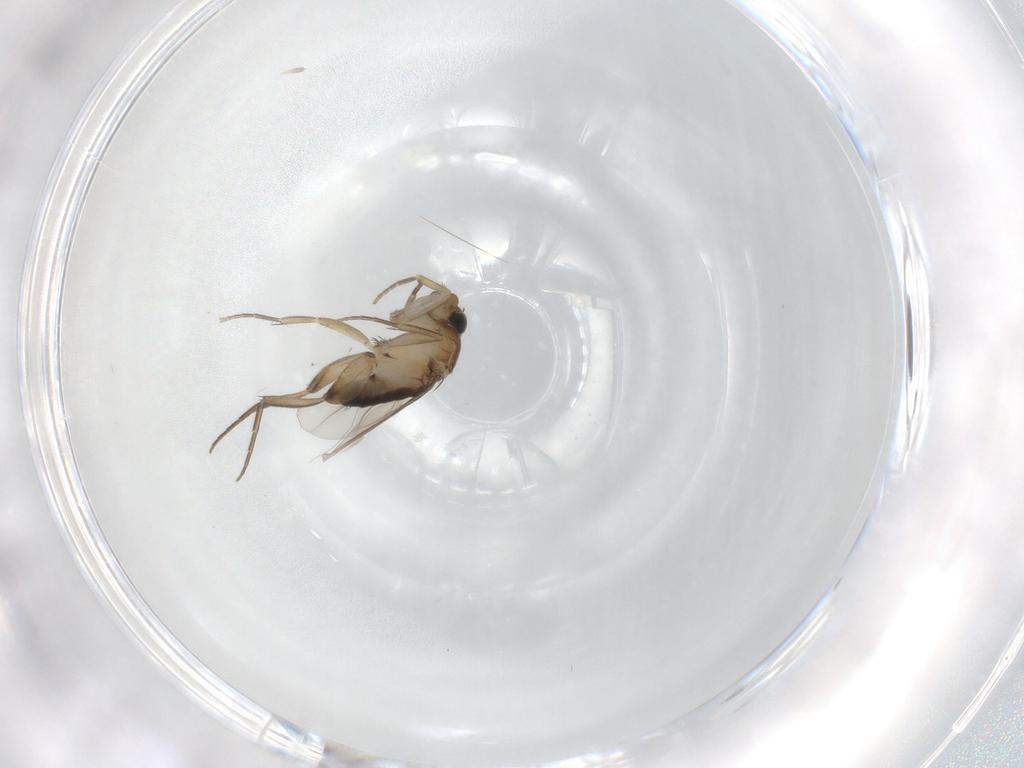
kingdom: Animalia
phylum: Arthropoda
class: Insecta
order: Diptera
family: Phoridae
